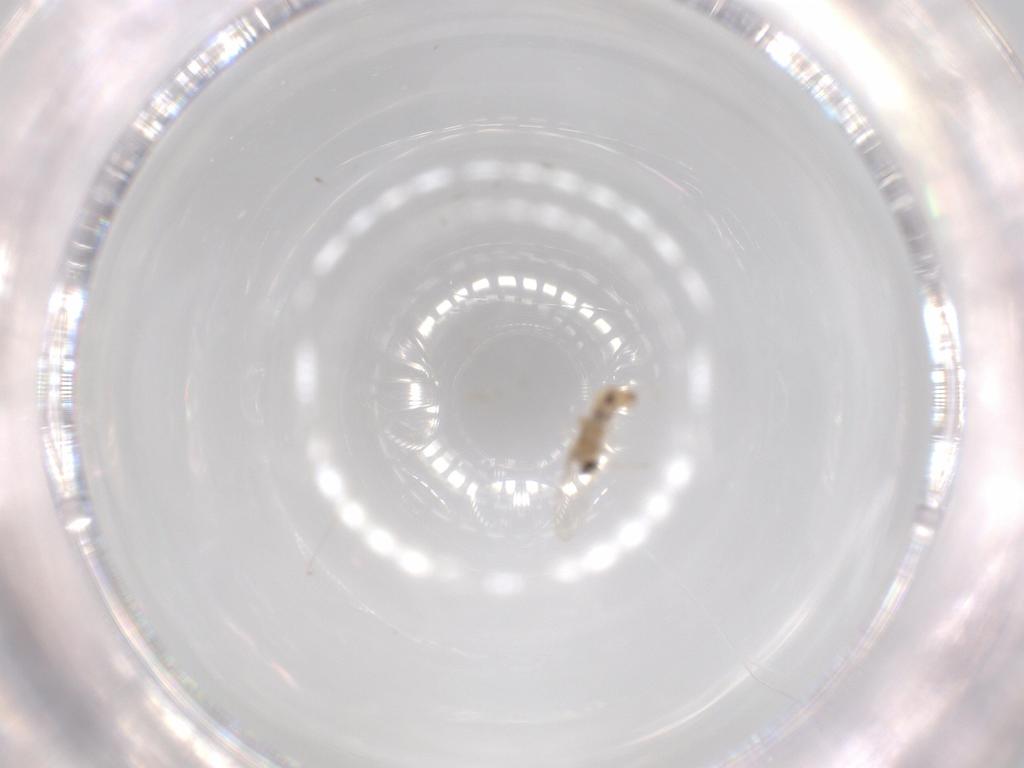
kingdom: Animalia
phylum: Arthropoda
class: Insecta
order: Diptera
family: Cecidomyiidae
